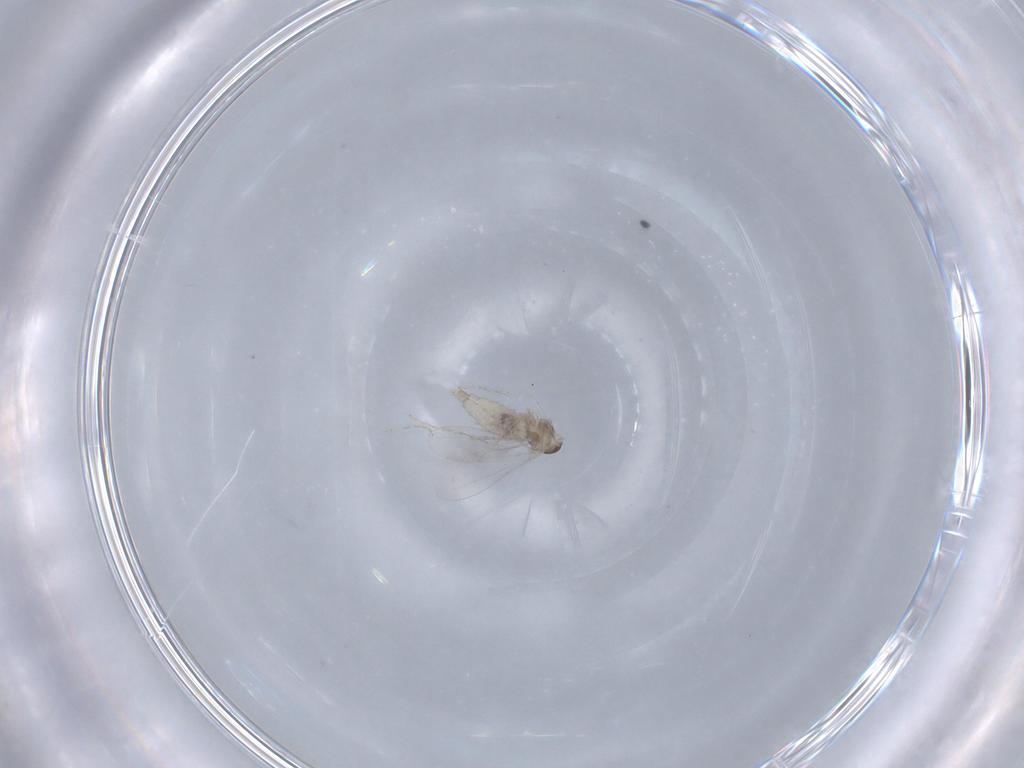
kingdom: Animalia
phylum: Arthropoda
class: Insecta
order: Diptera
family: Cecidomyiidae
